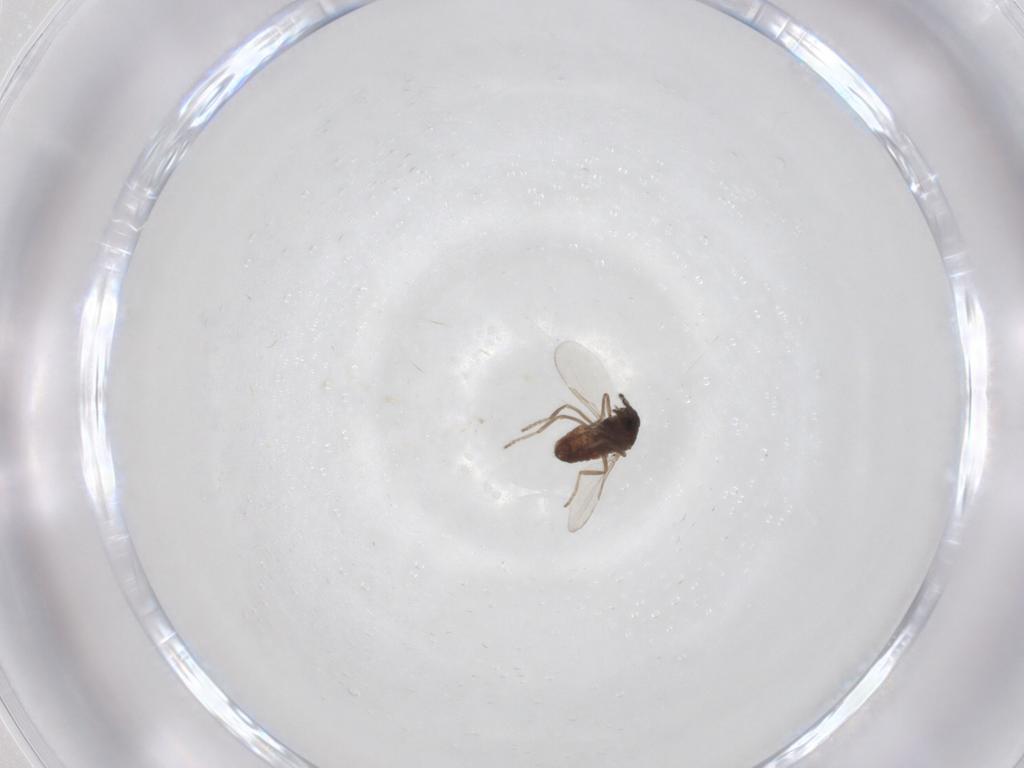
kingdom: Animalia
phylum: Arthropoda
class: Insecta
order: Diptera
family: Ceratopogonidae
